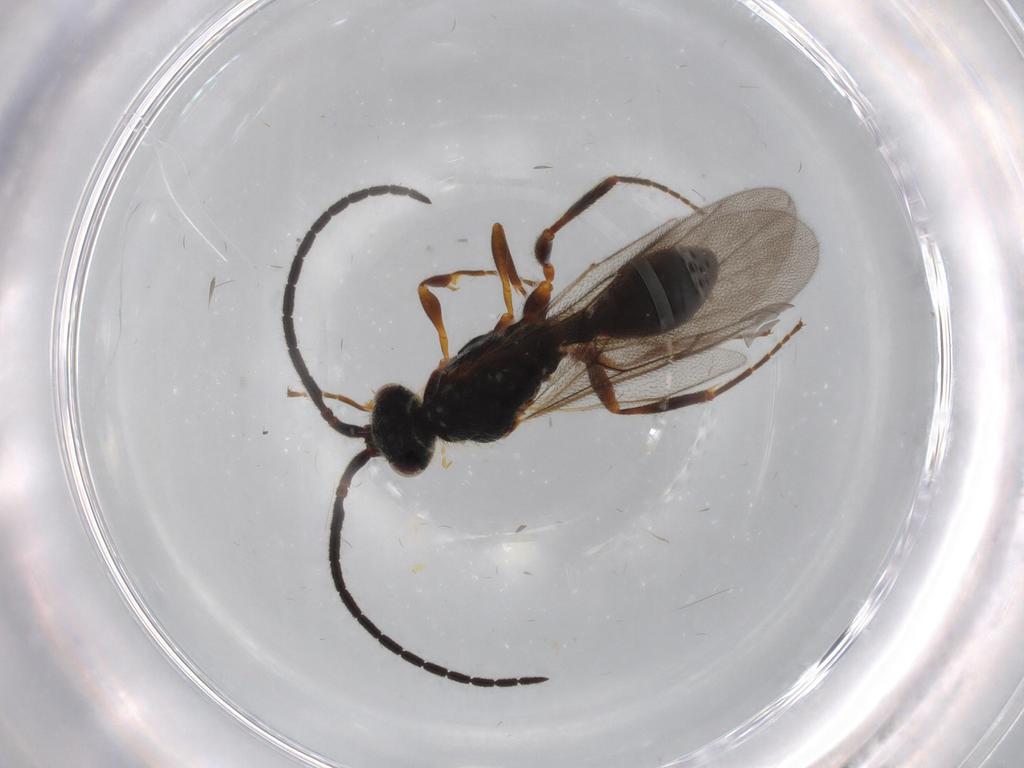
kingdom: Animalia
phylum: Arthropoda
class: Insecta
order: Hymenoptera
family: Diapriidae
